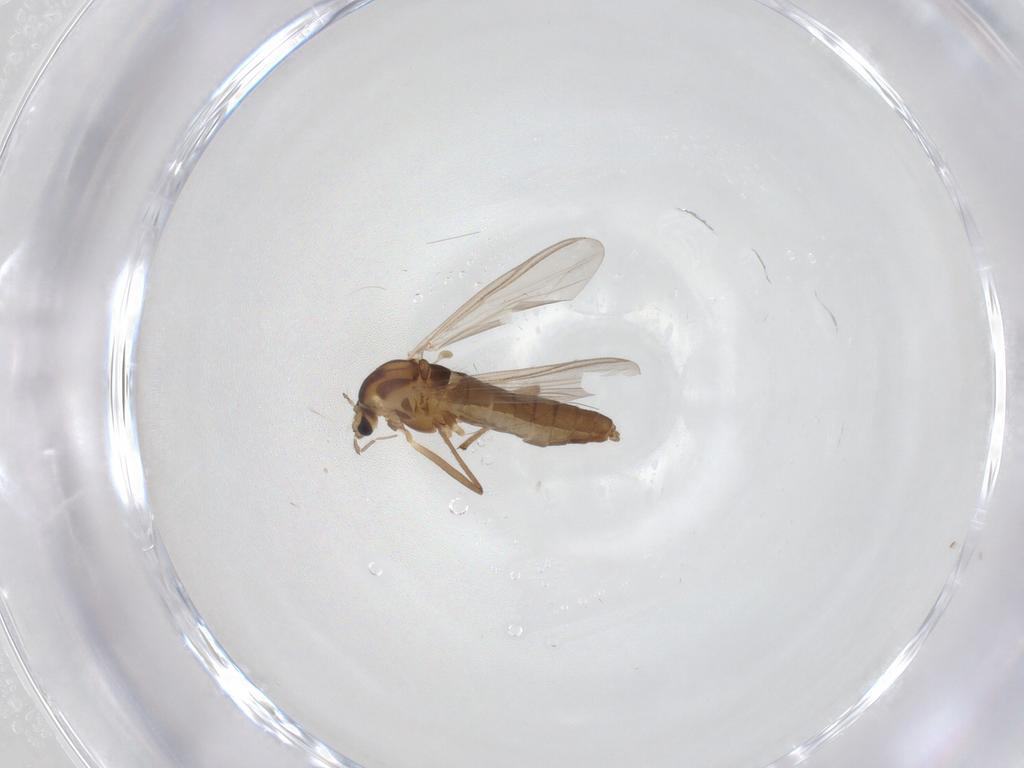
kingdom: Animalia
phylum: Arthropoda
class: Insecta
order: Diptera
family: Chironomidae
